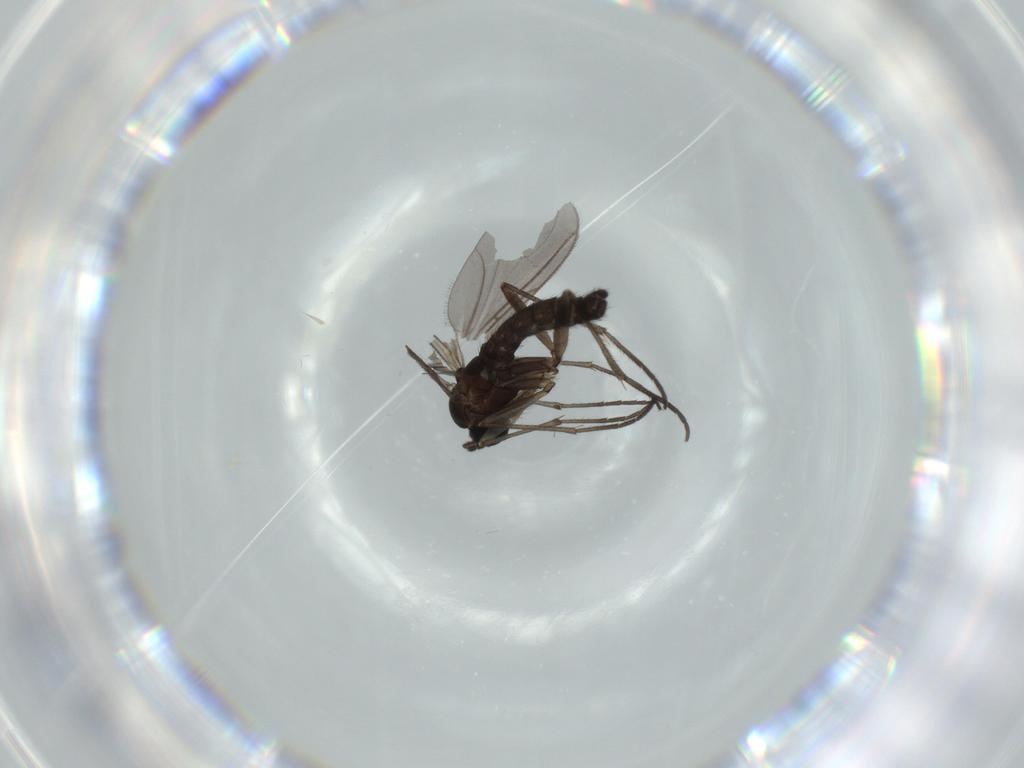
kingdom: Animalia
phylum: Arthropoda
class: Insecta
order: Diptera
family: Sciaridae
